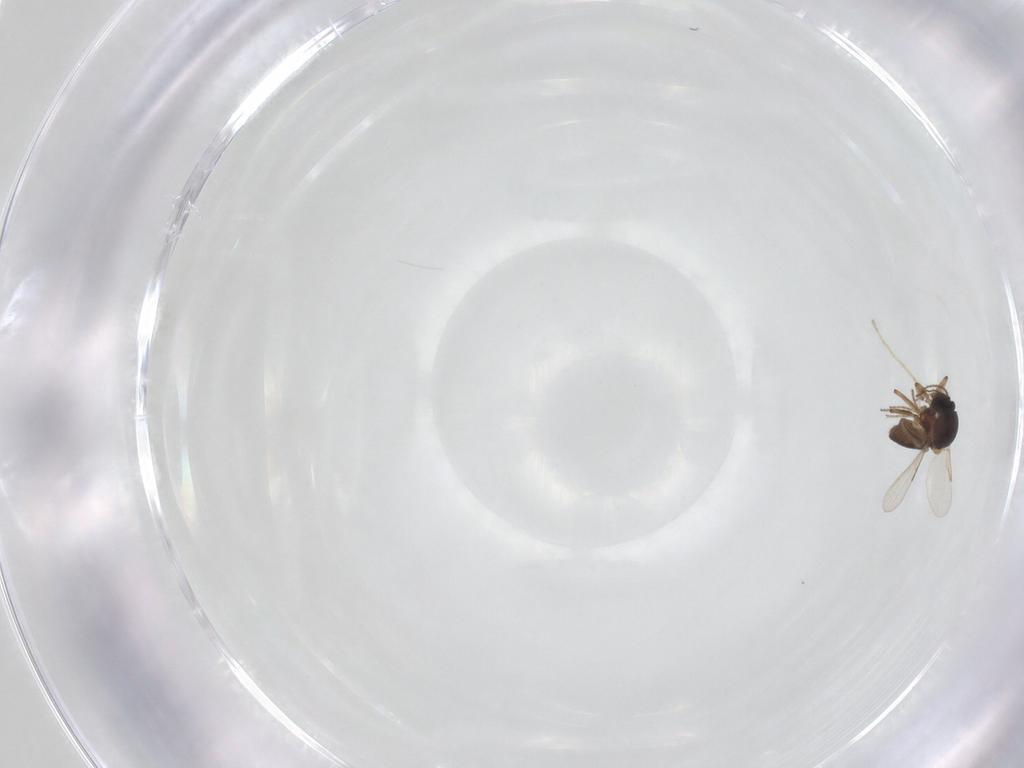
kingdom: Animalia
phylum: Arthropoda
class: Insecta
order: Diptera
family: Ceratopogonidae
